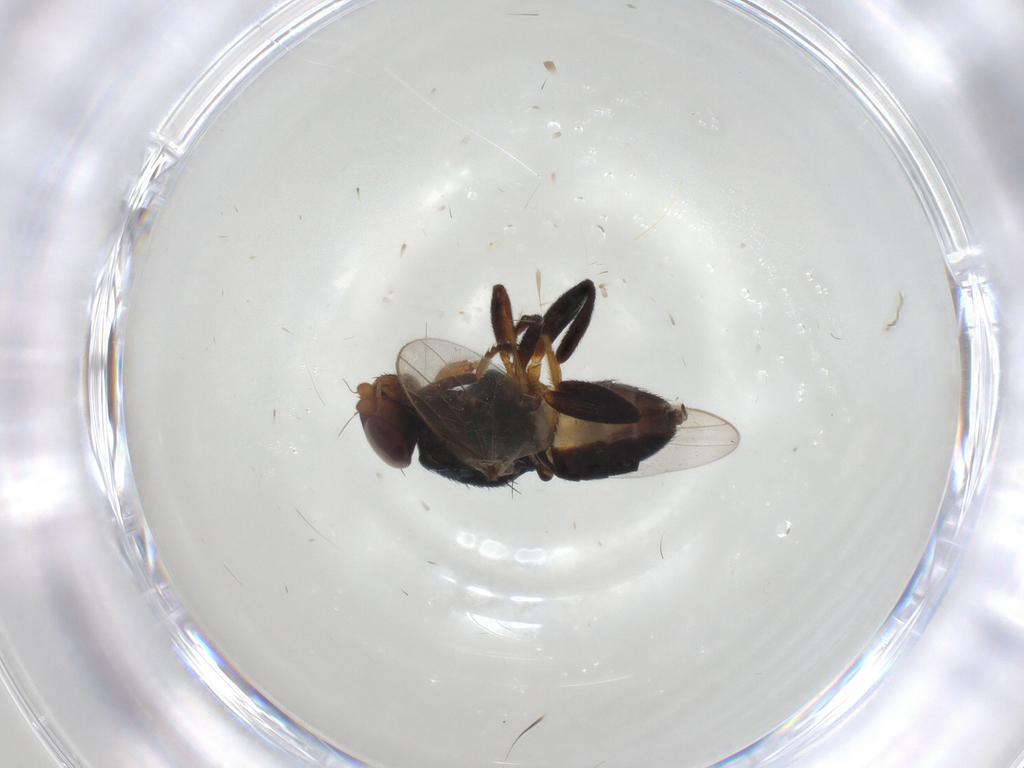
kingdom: Animalia
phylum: Arthropoda
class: Insecta
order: Diptera
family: Chloropidae
